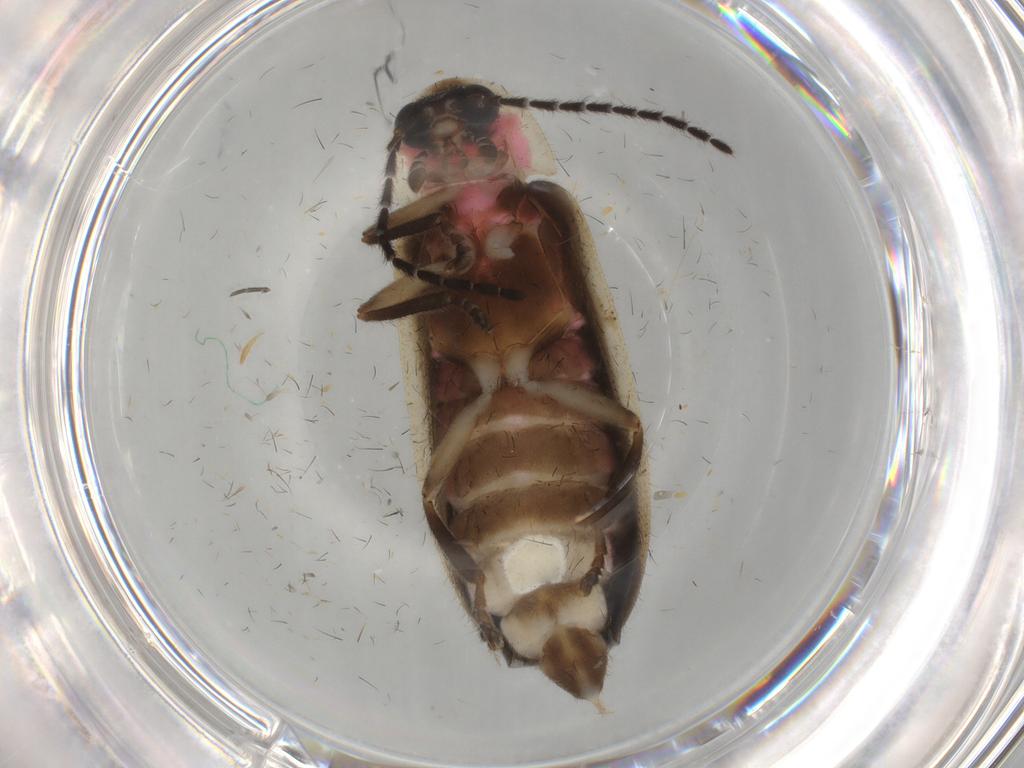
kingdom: Animalia
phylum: Arthropoda
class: Insecta
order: Coleoptera
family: Lampyridae
